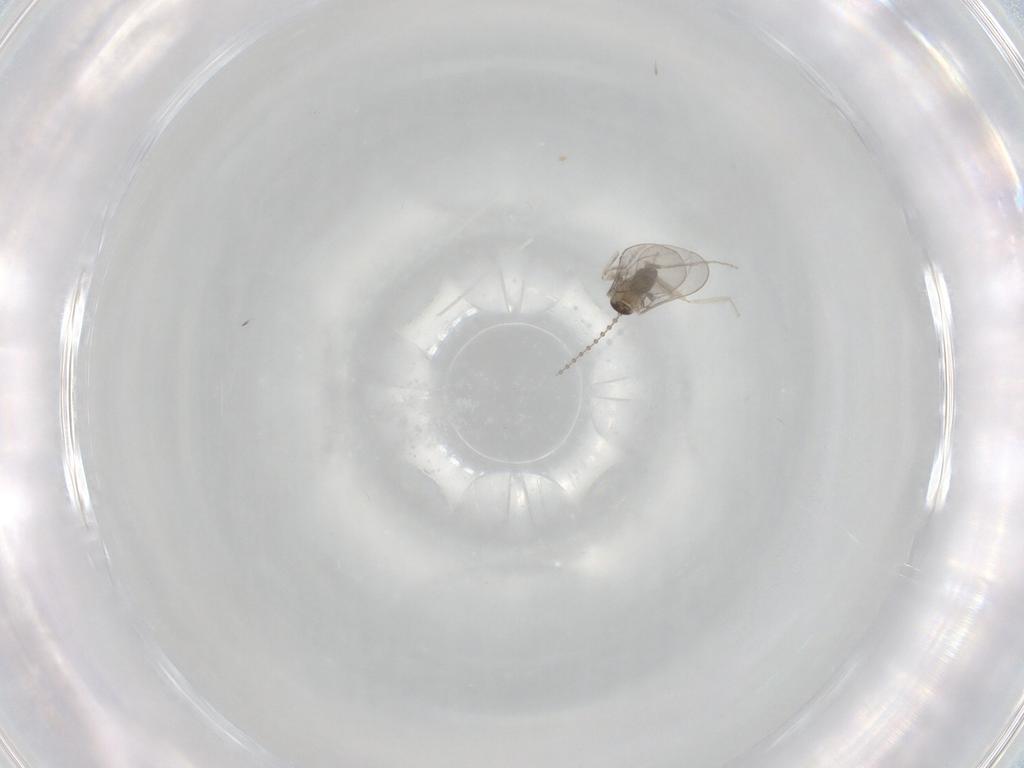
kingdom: Animalia
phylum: Arthropoda
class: Insecta
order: Diptera
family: Cecidomyiidae
